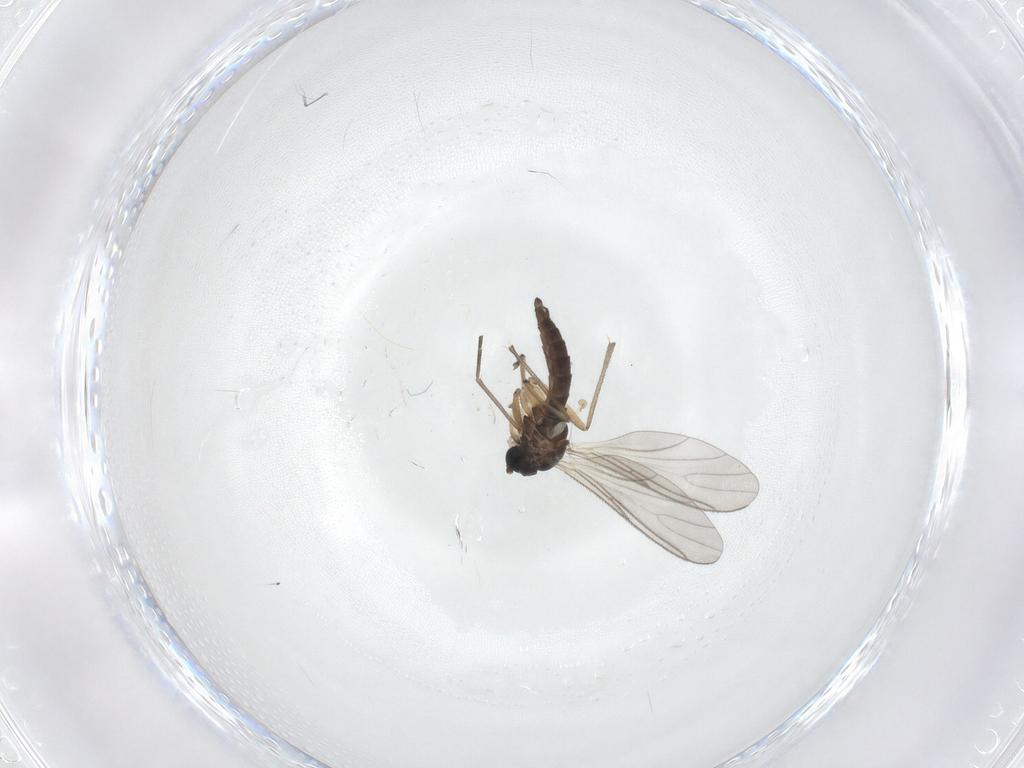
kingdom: Animalia
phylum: Arthropoda
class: Insecta
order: Diptera
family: Sciaridae
